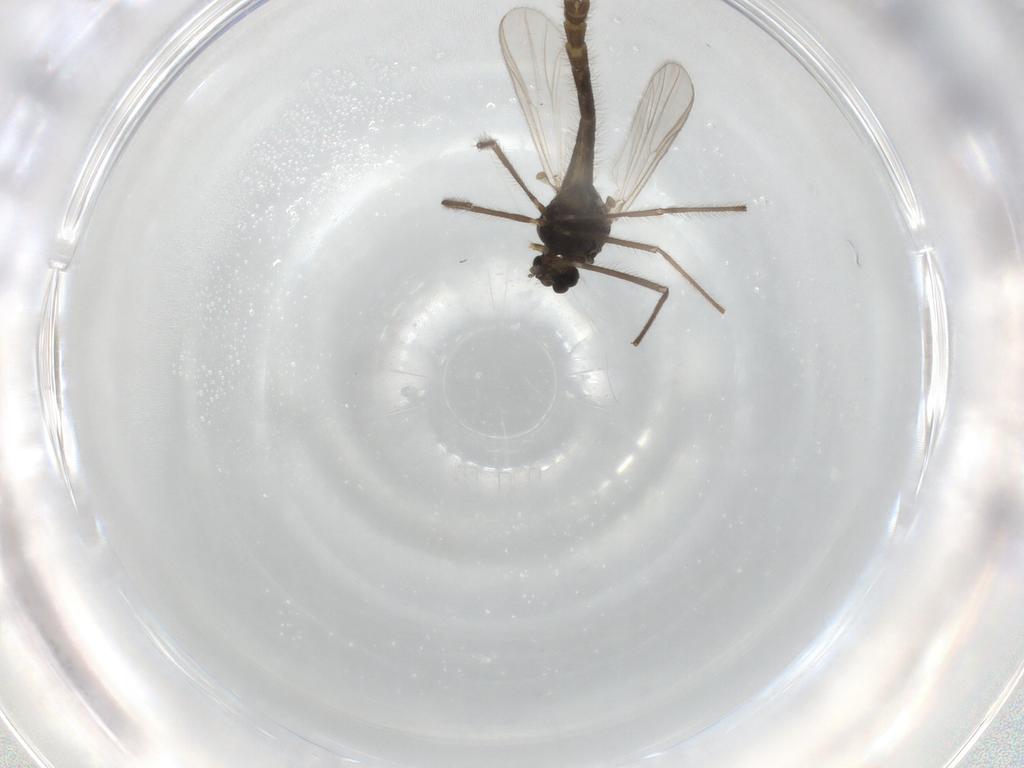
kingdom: Animalia
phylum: Arthropoda
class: Insecta
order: Diptera
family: Chironomidae
